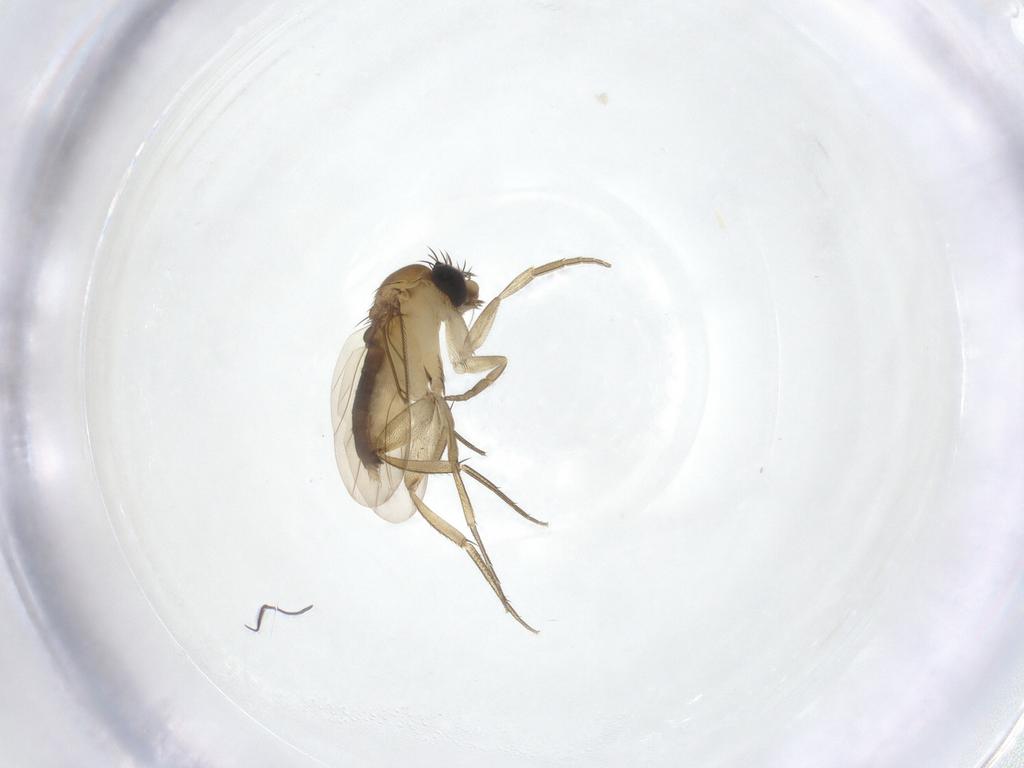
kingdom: Animalia
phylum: Arthropoda
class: Insecta
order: Diptera
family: Phoridae
